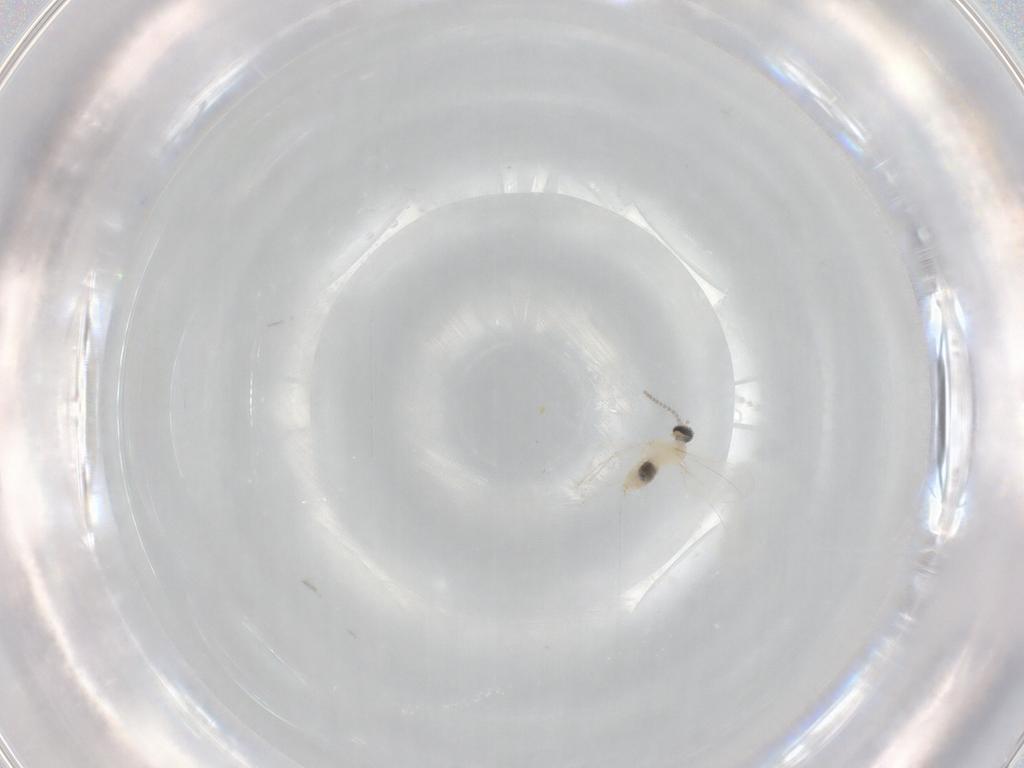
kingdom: Animalia
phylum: Arthropoda
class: Insecta
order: Diptera
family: Cecidomyiidae
